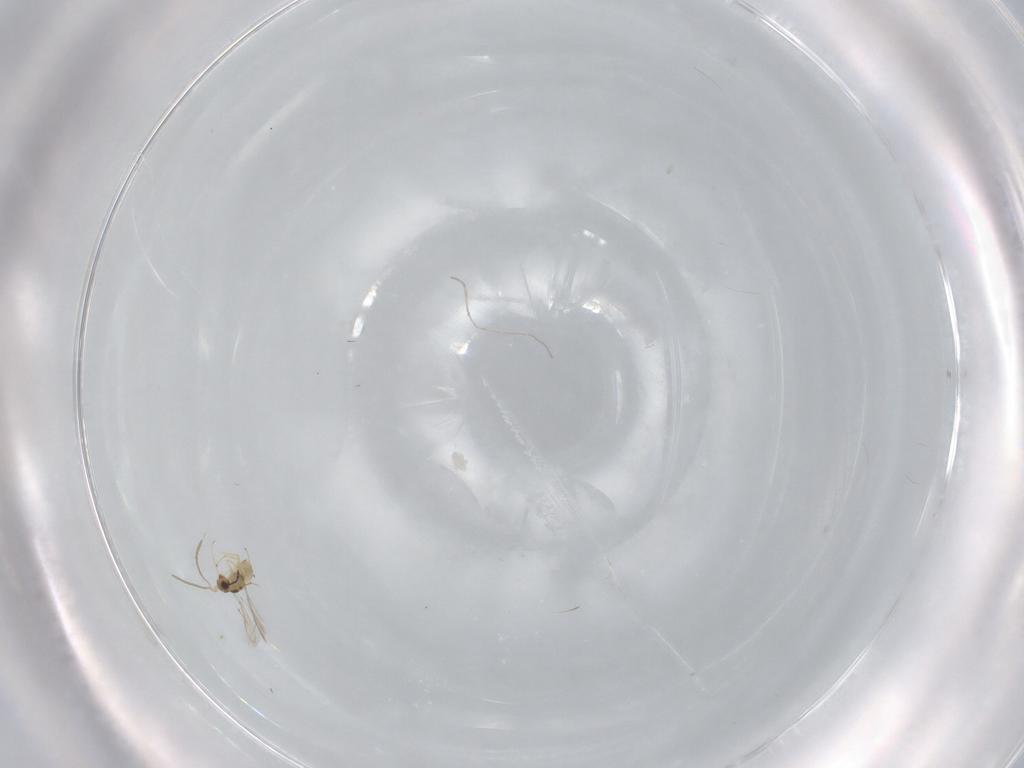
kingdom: Animalia
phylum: Arthropoda
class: Insecta
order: Hymenoptera
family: Mymaridae
